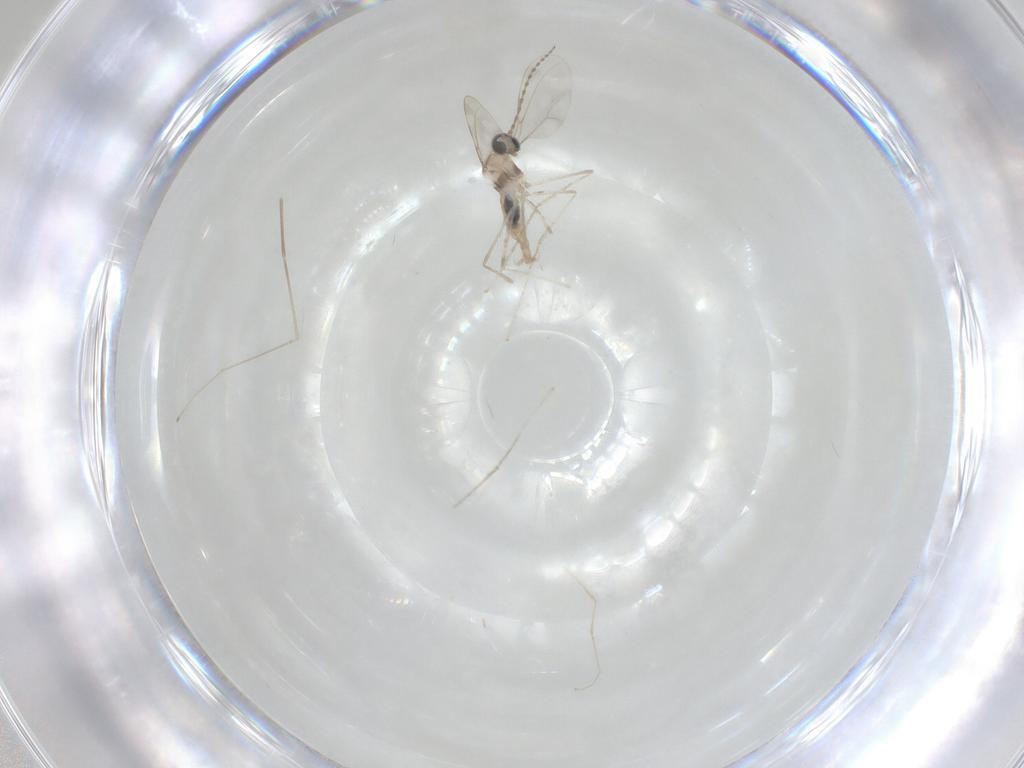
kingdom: Animalia
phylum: Arthropoda
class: Insecta
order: Diptera
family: Cecidomyiidae
